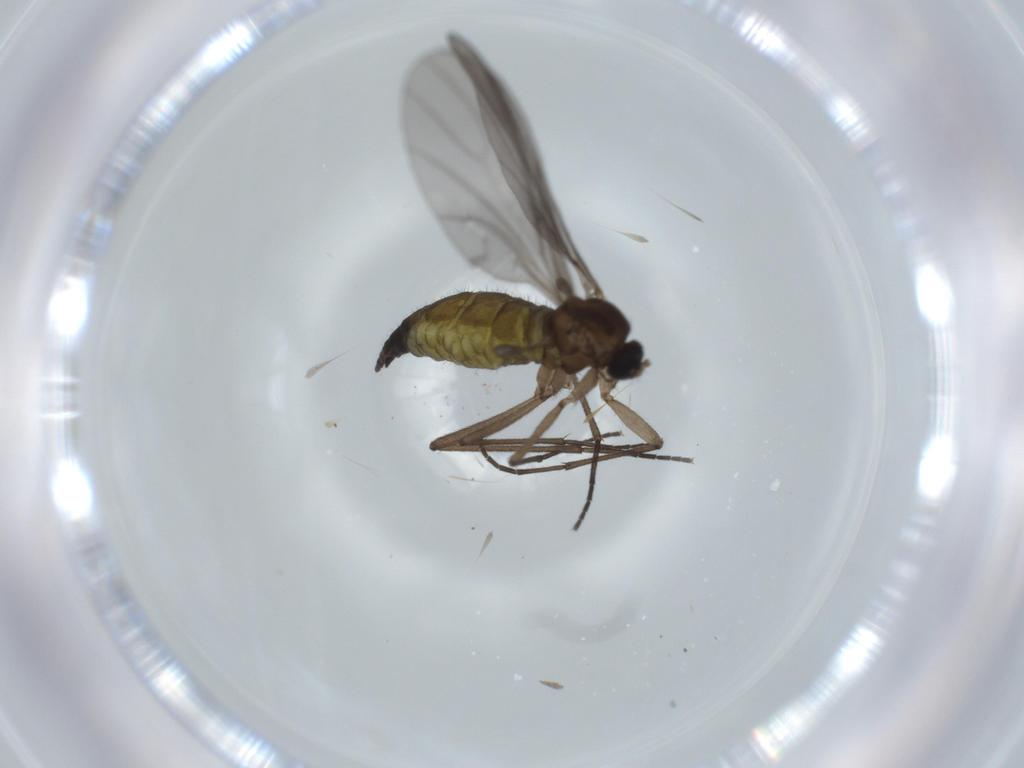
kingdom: Animalia
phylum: Arthropoda
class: Insecta
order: Diptera
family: Sciaridae
